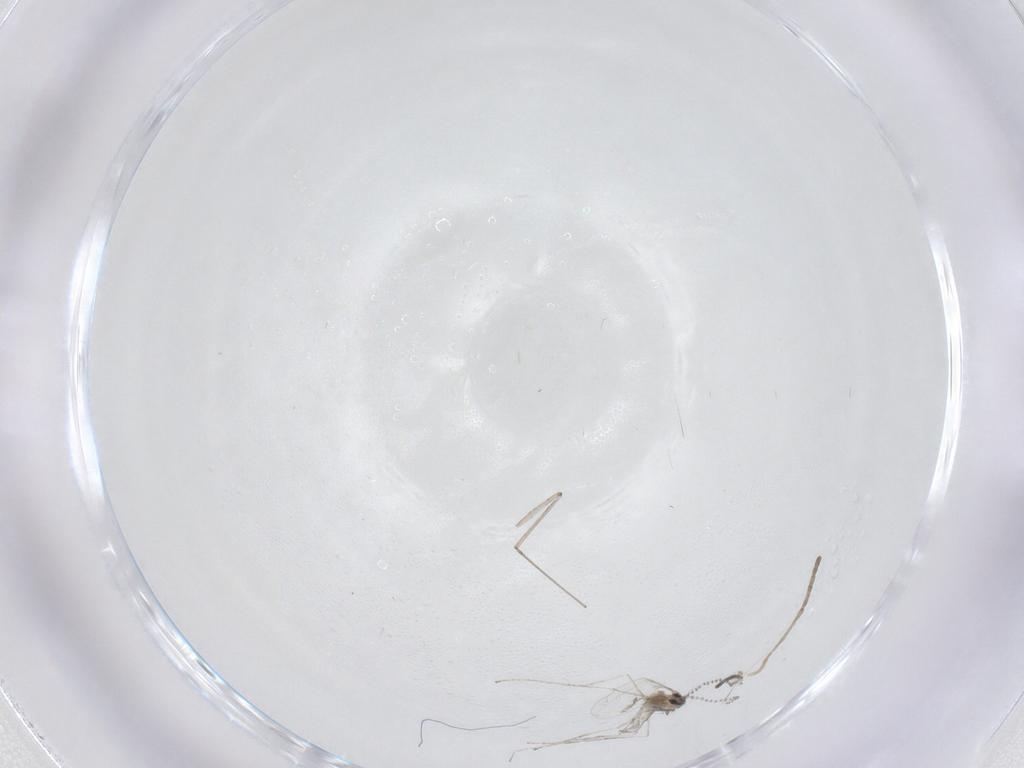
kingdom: Animalia
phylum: Arthropoda
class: Insecta
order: Diptera
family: Cecidomyiidae
